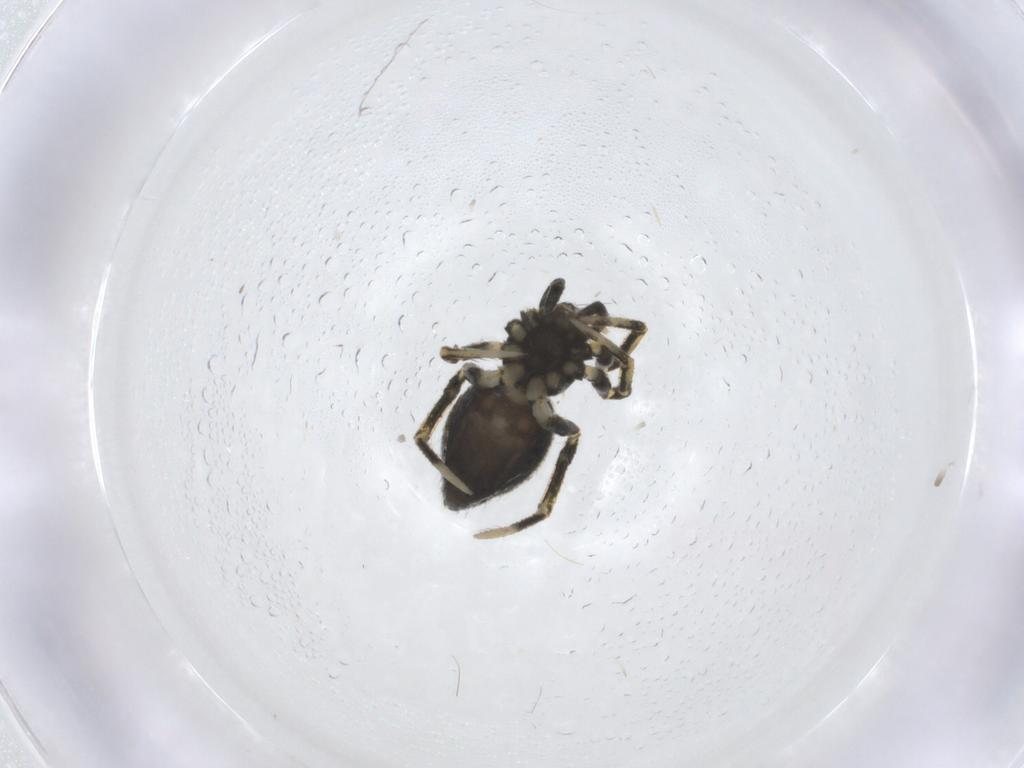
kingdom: Animalia
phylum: Arthropoda
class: Arachnida
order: Araneae
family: Theridiidae
